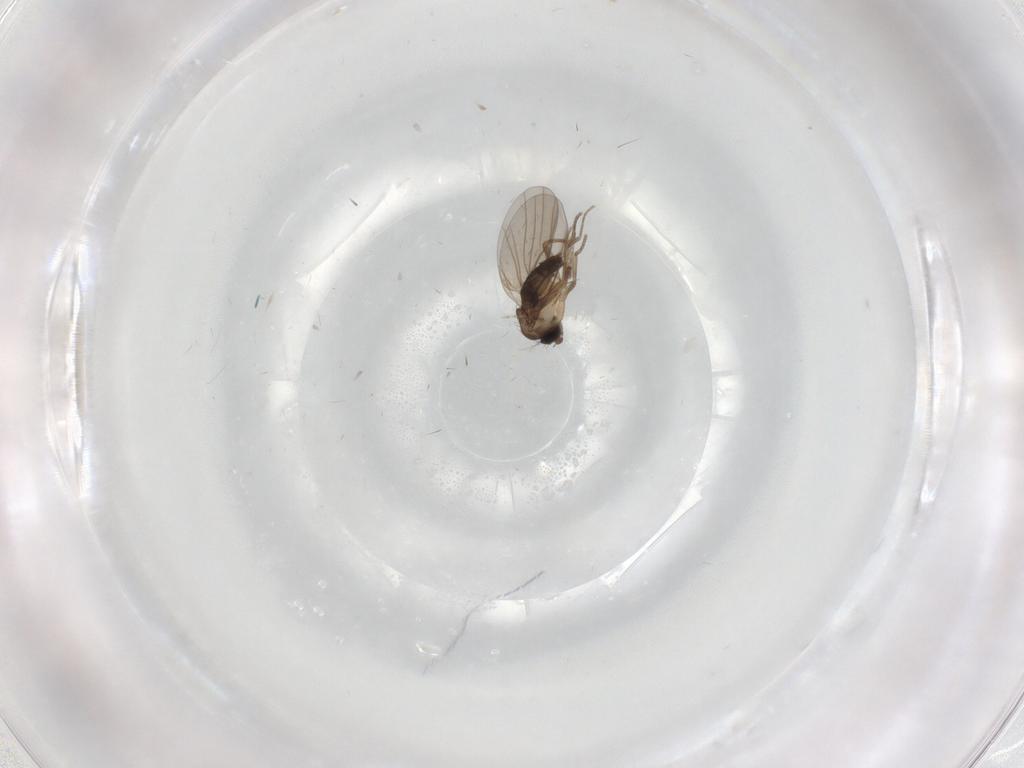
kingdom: Animalia
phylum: Arthropoda
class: Insecta
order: Diptera
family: Phoridae
